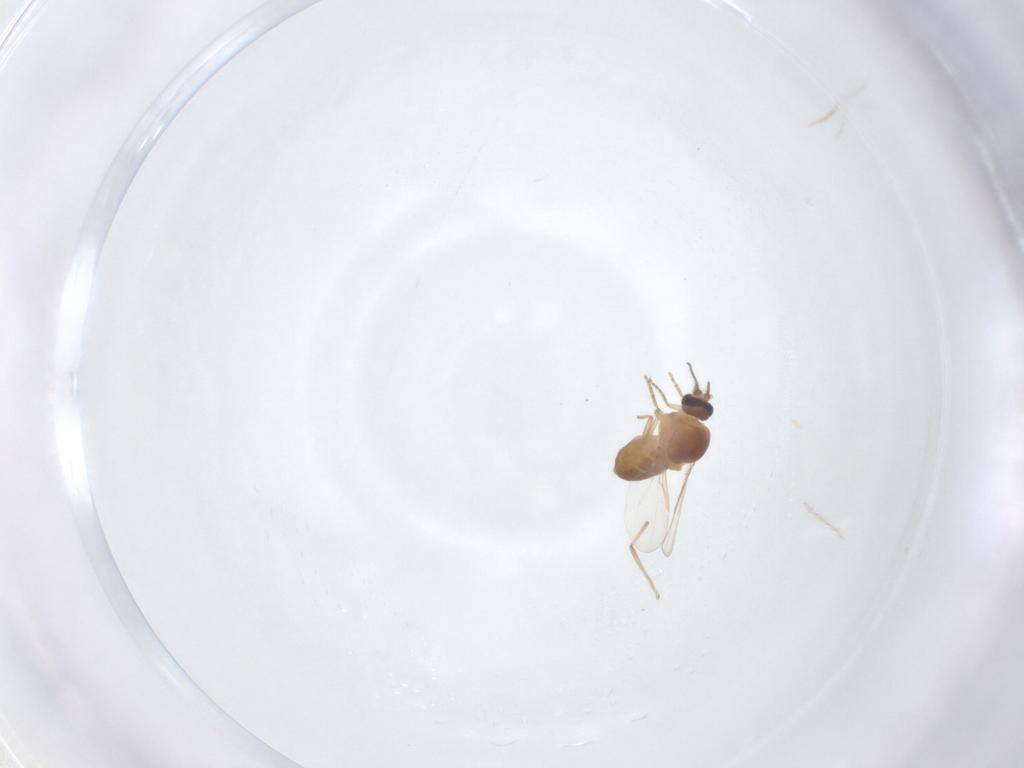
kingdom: Animalia
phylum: Arthropoda
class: Insecta
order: Diptera
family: Ceratopogonidae
